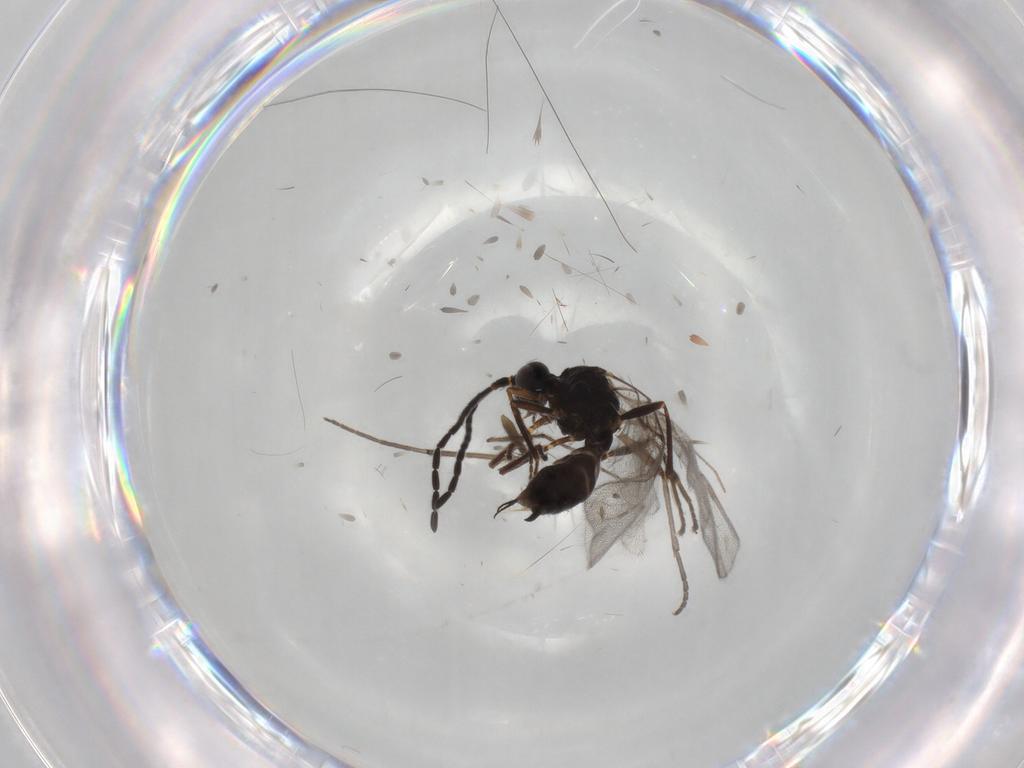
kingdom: Animalia
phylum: Arthropoda
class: Insecta
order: Hymenoptera
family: Braconidae
